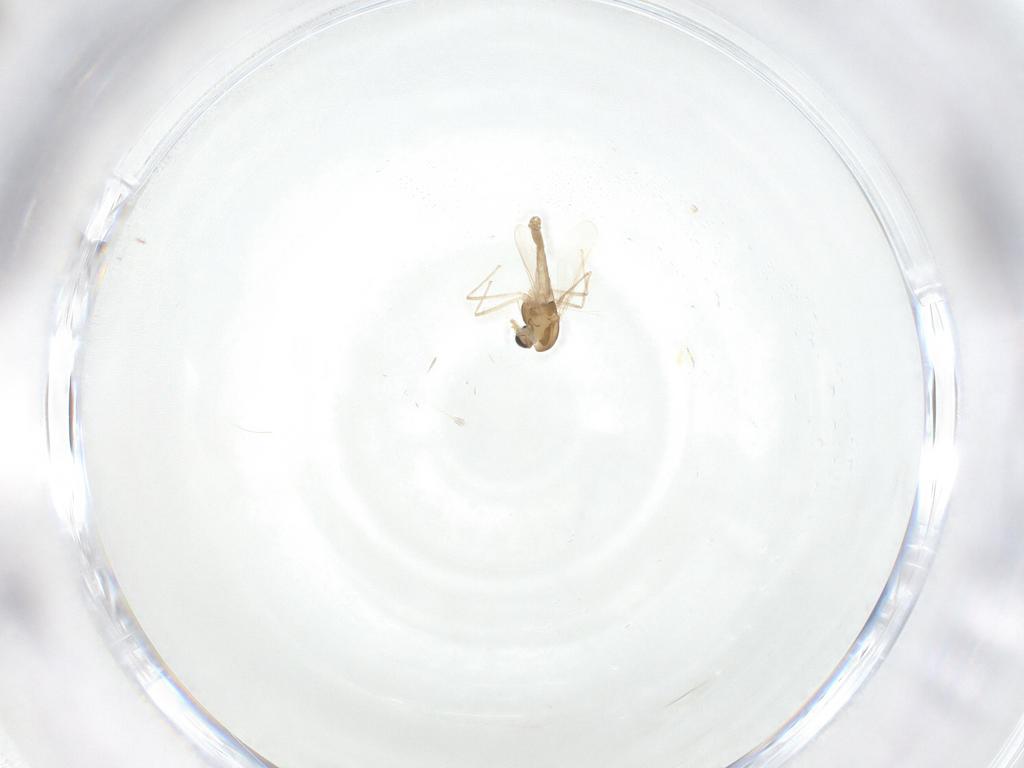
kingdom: Animalia
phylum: Arthropoda
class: Insecta
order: Diptera
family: Chironomidae
